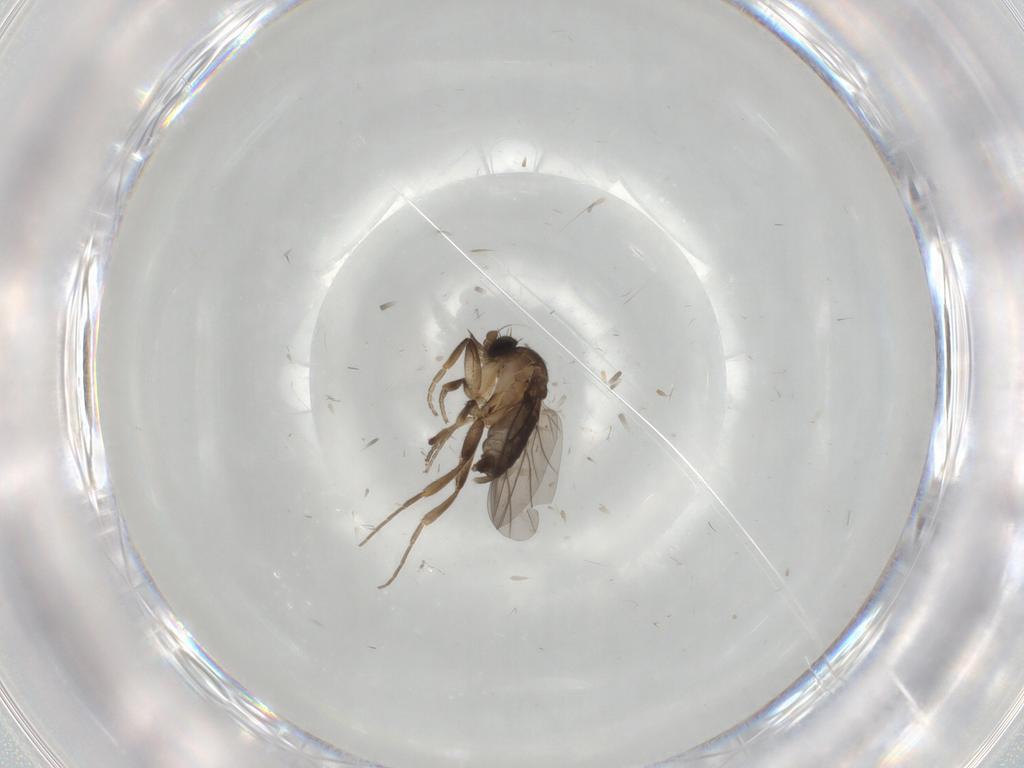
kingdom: Animalia
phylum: Arthropoda
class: Insecta
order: Diptera
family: Phoridae
